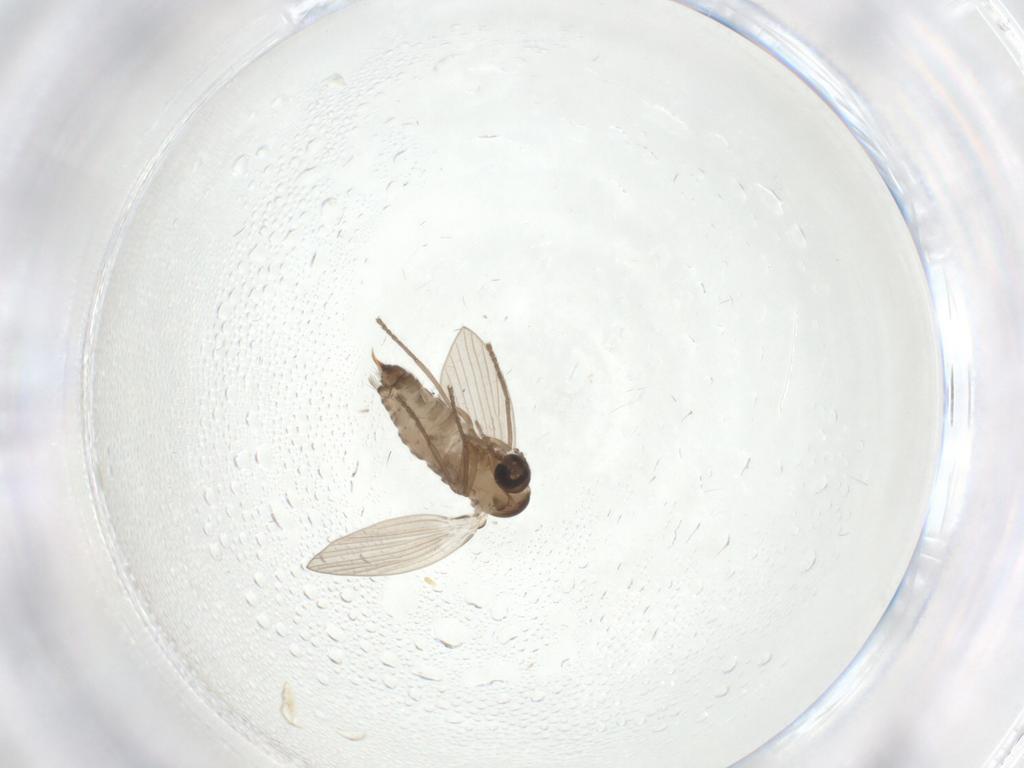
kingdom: Animalia
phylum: Arthropoda
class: Insecta
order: Diptera
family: Psychodidae
